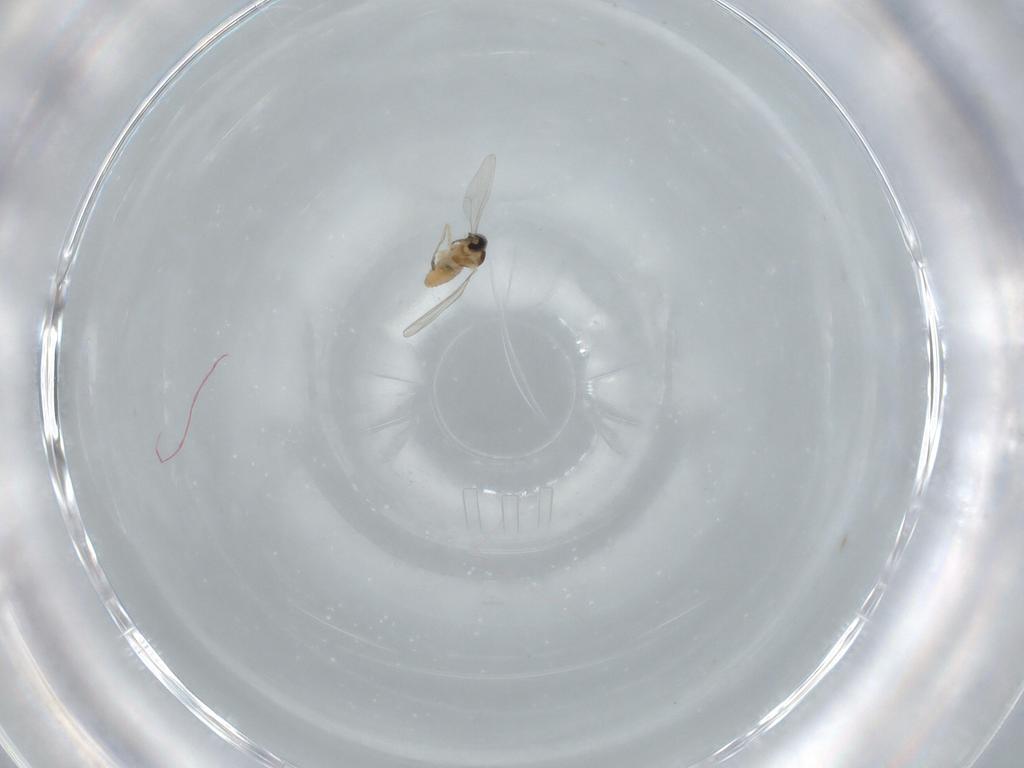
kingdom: Animalia
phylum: Arthropoda
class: Insecta
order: Diptera
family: Cecidomyiidae
